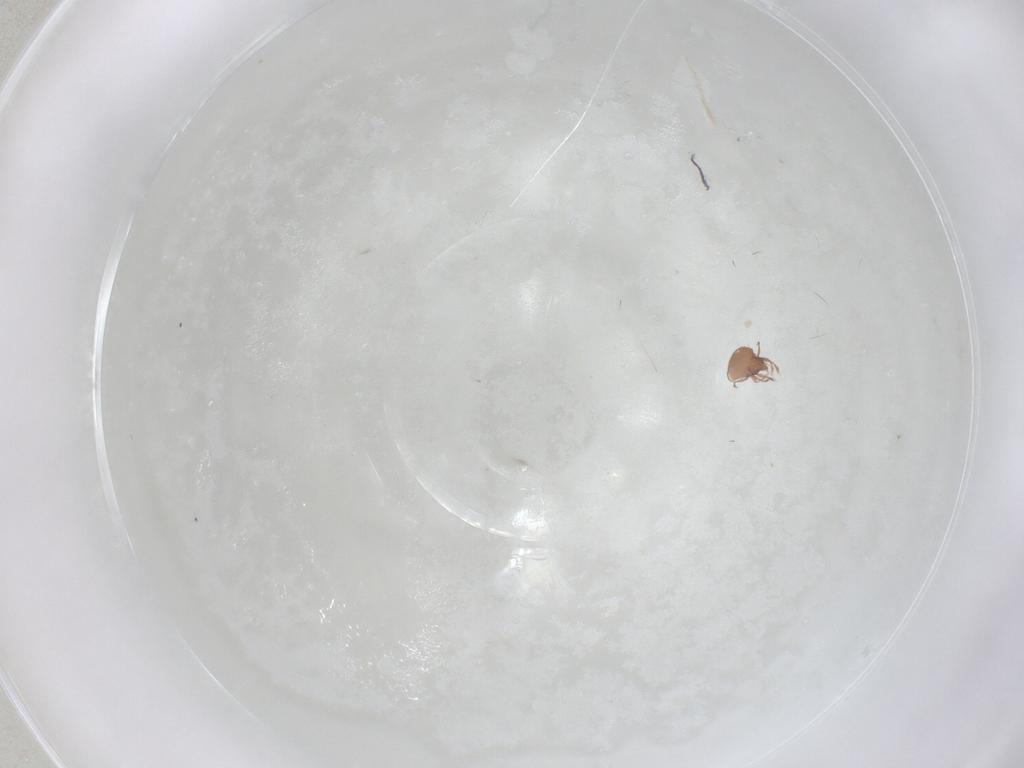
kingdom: Animalia
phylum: Arthropoda
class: Arachnida
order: Sarcoptiformes
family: Scheloribatidae
